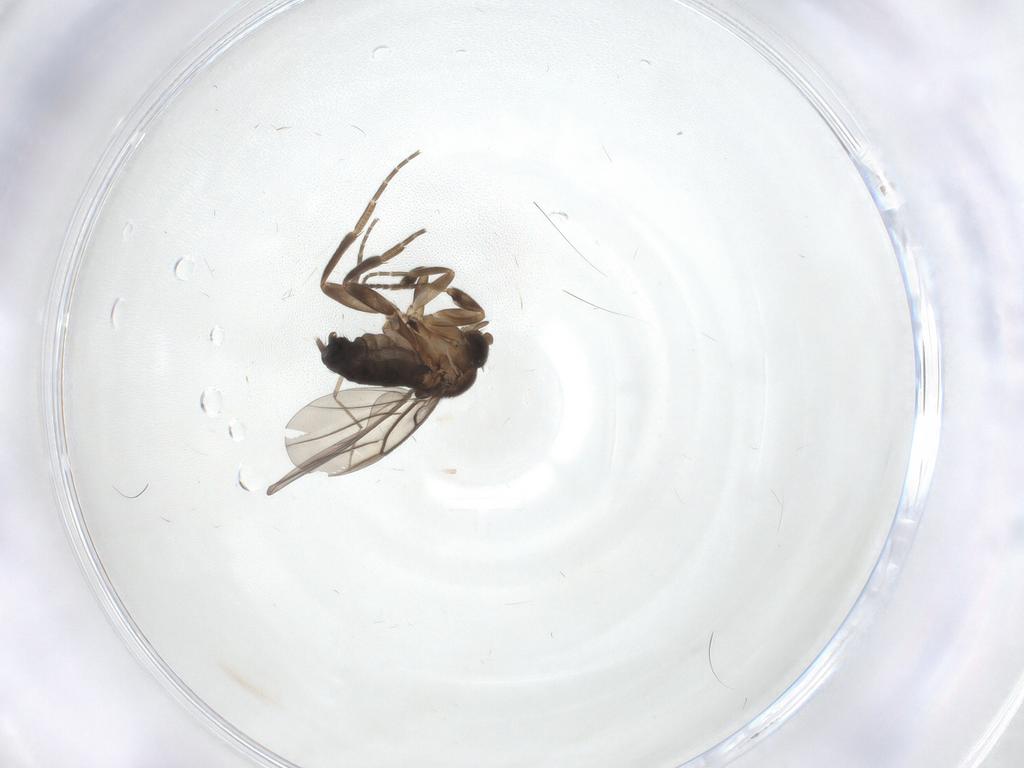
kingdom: Animalia
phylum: Arthropoda
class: Insecta
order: Diptera
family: Phoridae
